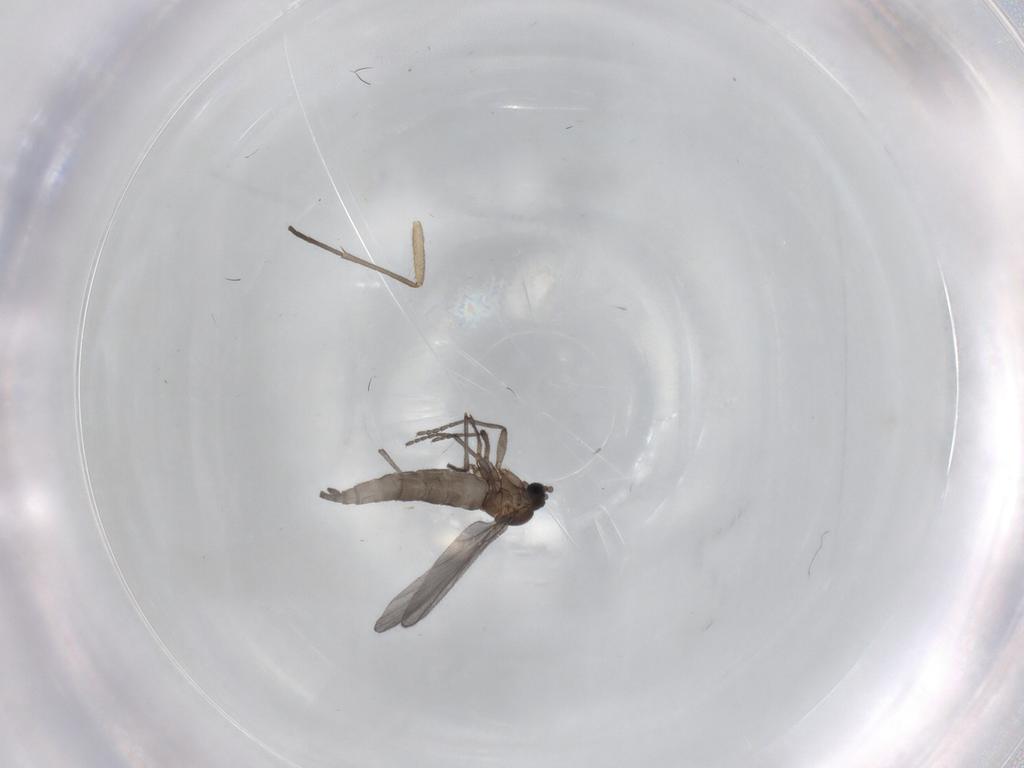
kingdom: Animalia
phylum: Arthropoda
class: Insecta
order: Diptera
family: Sciaridae
